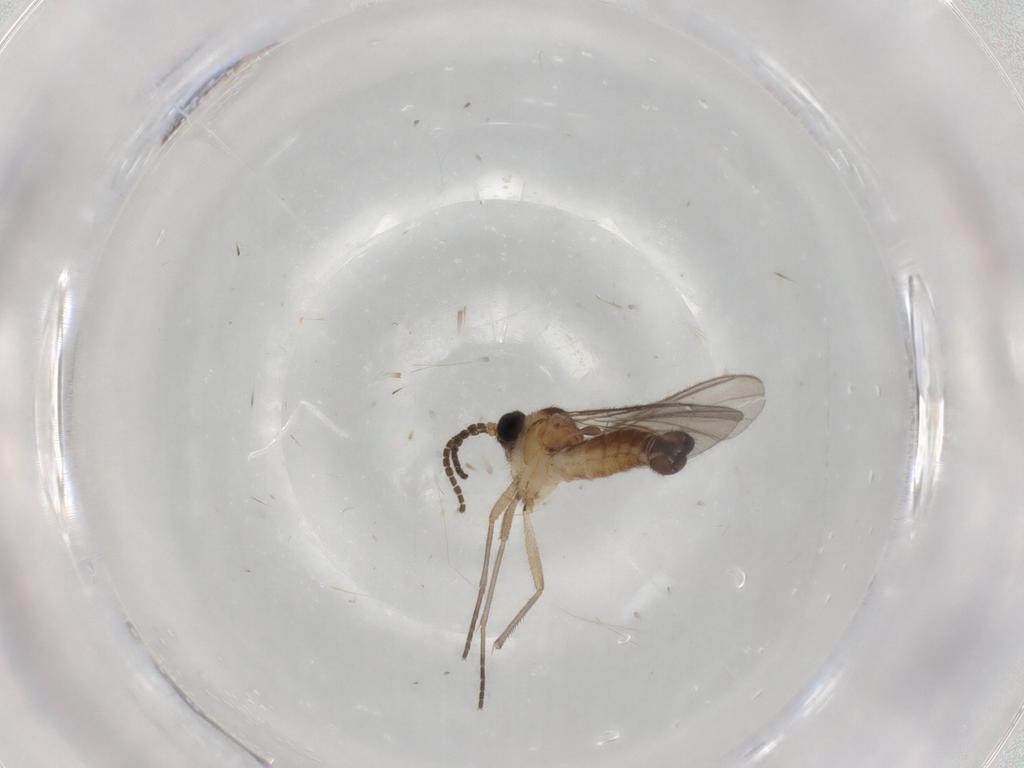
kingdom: Animalia
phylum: Arthropoda
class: Insecta
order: Diptera
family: Sciaridae
